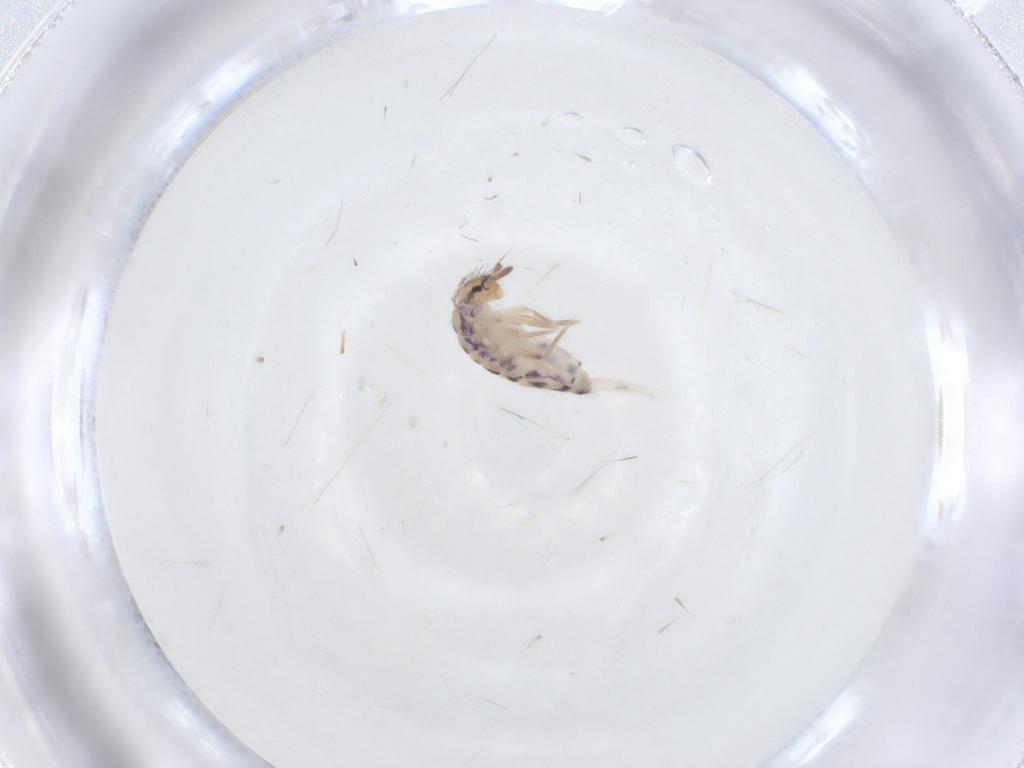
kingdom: Animalia
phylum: Arthropoda
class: Collembola
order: Entomobryomorpha
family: Entomobryidae
